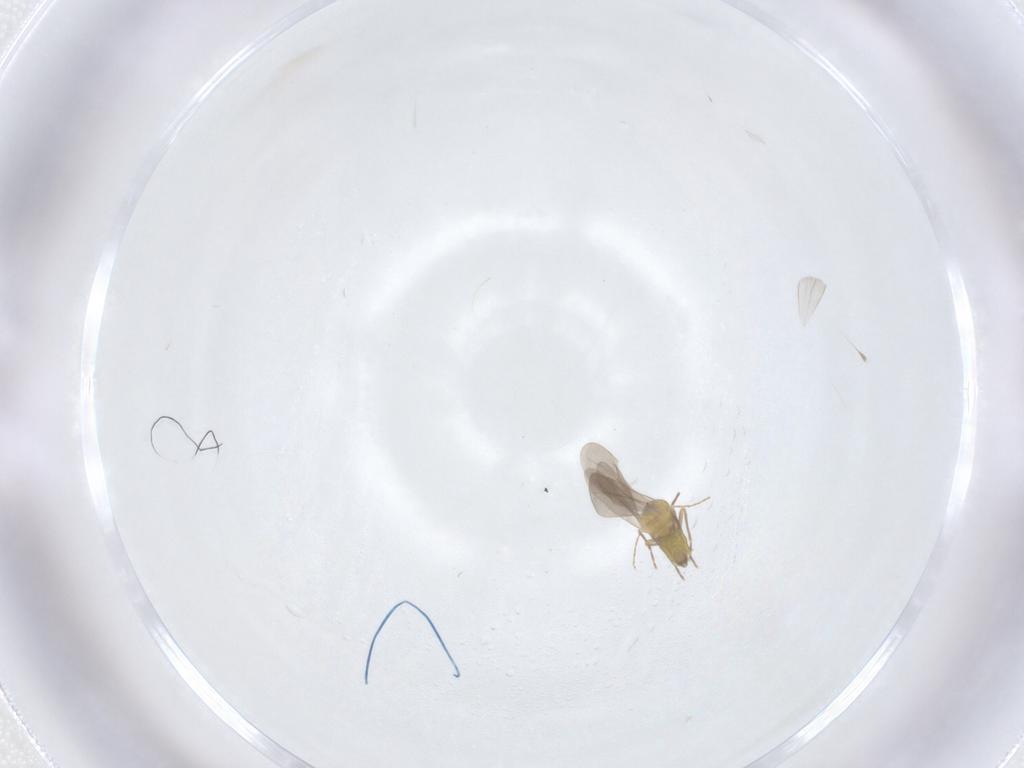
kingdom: Animalia
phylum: Arthropoda
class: Insecta
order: Hemiptera
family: Aleyrodidae
